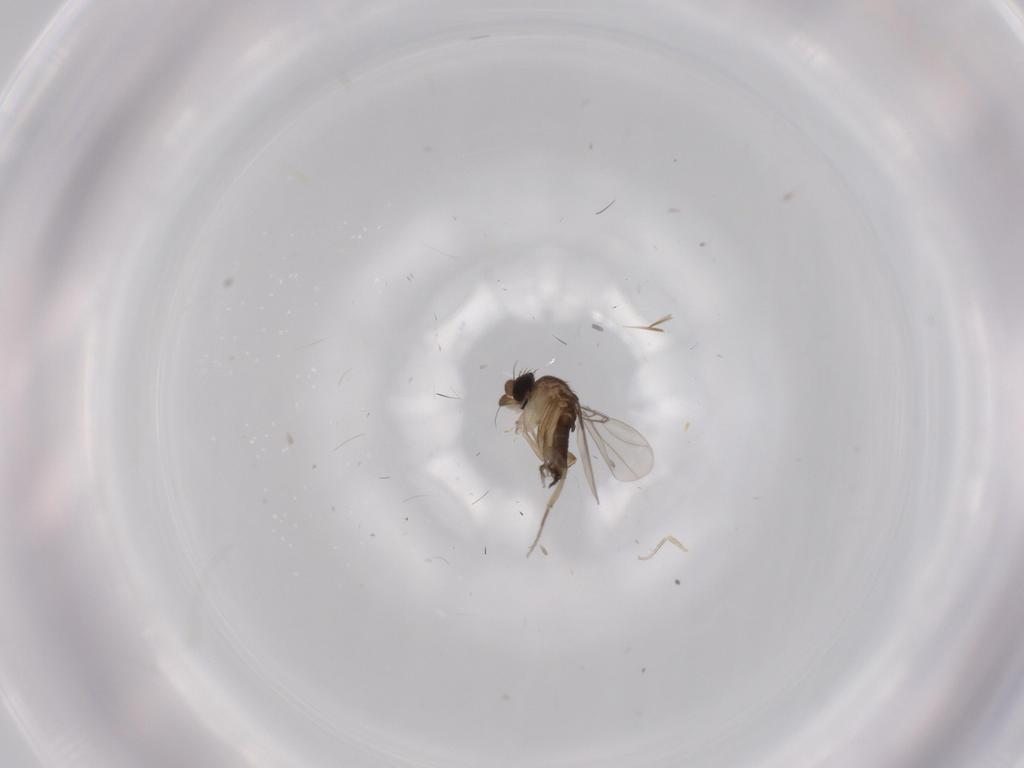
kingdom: Animalia
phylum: Arthropoda
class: Insecta
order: Diptera
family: Phoridae
